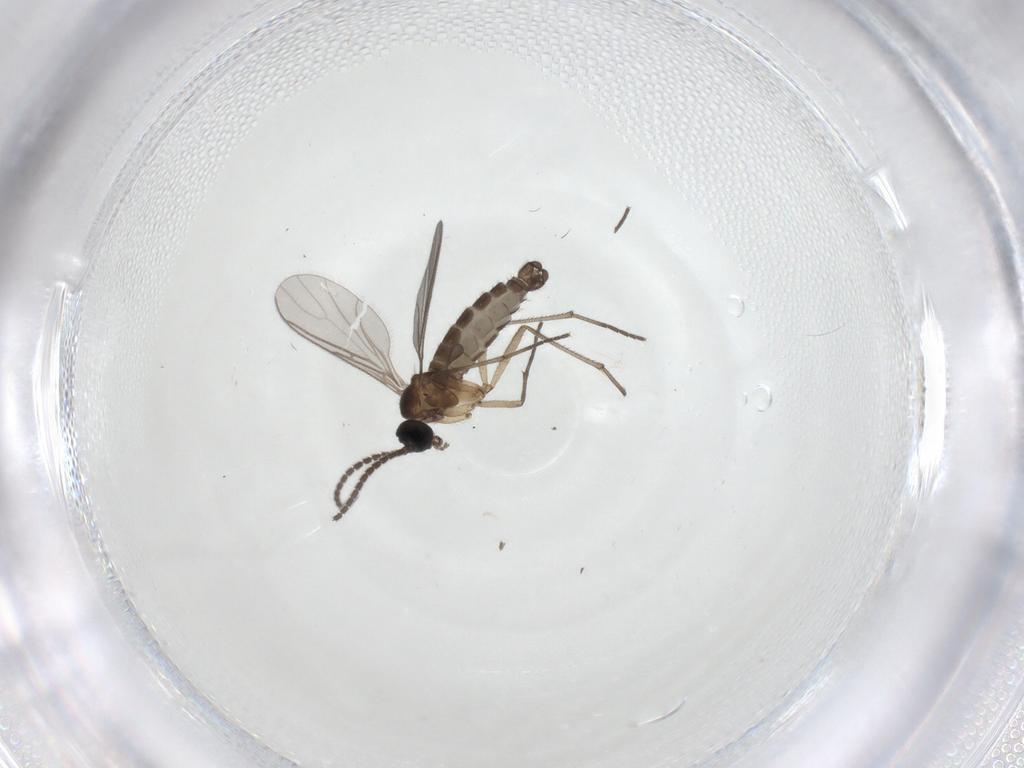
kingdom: Animalia
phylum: Arthropoda
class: Insecta
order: Diptera
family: Sciaridae
